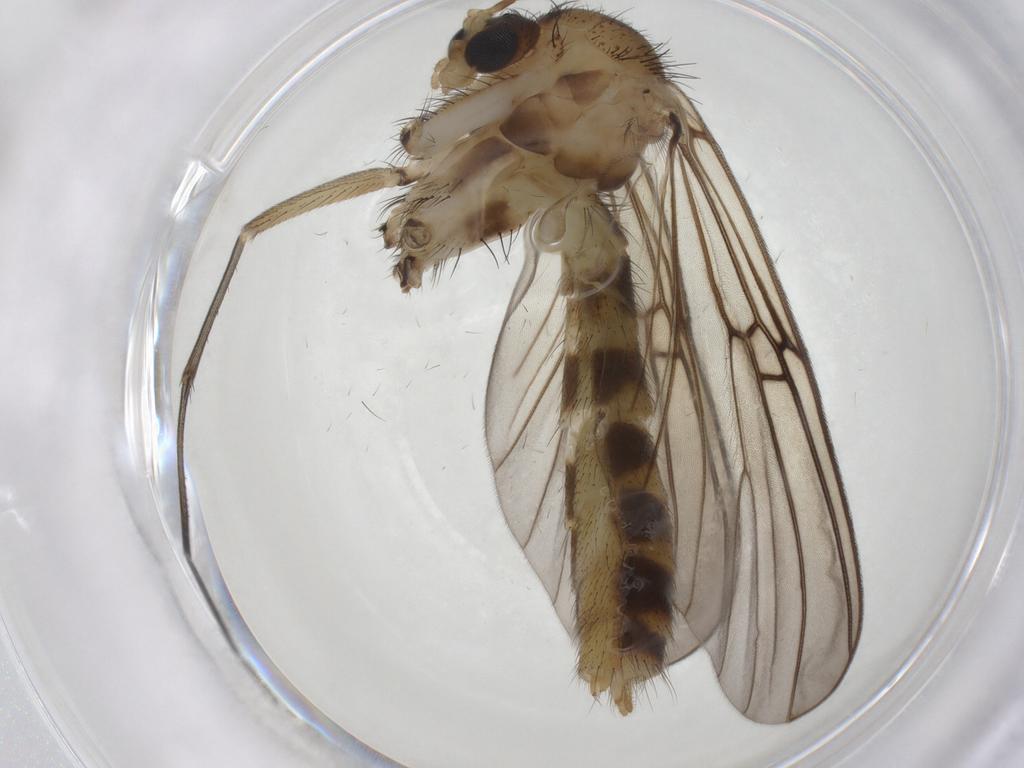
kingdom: Animalia
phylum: Arthropoda
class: Insecta
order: Diptera
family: Mycetophilidae
